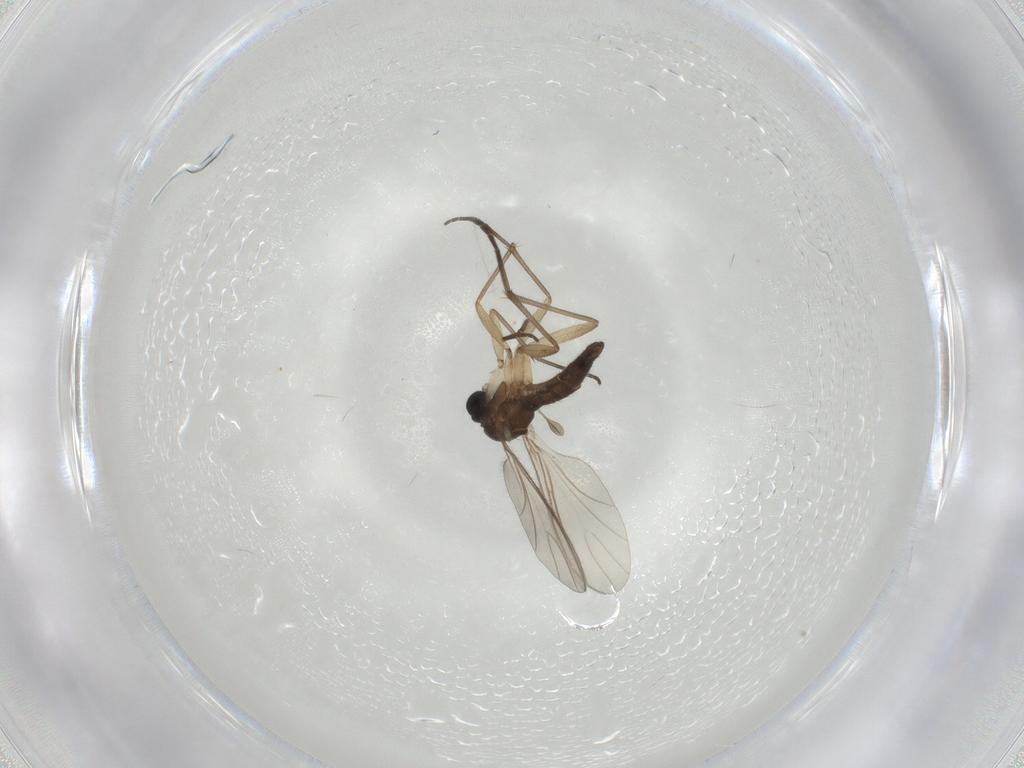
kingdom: Animalia
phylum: Arthropoda
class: Insecta
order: Diptera
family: Sciaridae
